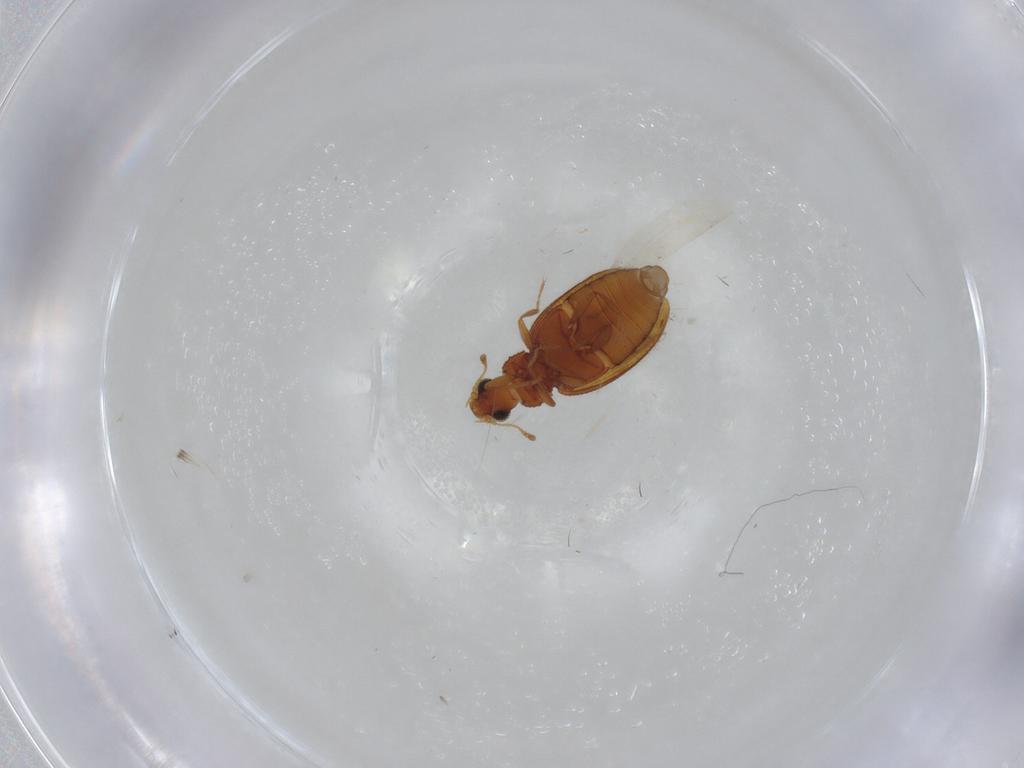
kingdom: Animalia
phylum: Arthropoda
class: Insecta
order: Coleoptera
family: Latridiidae
